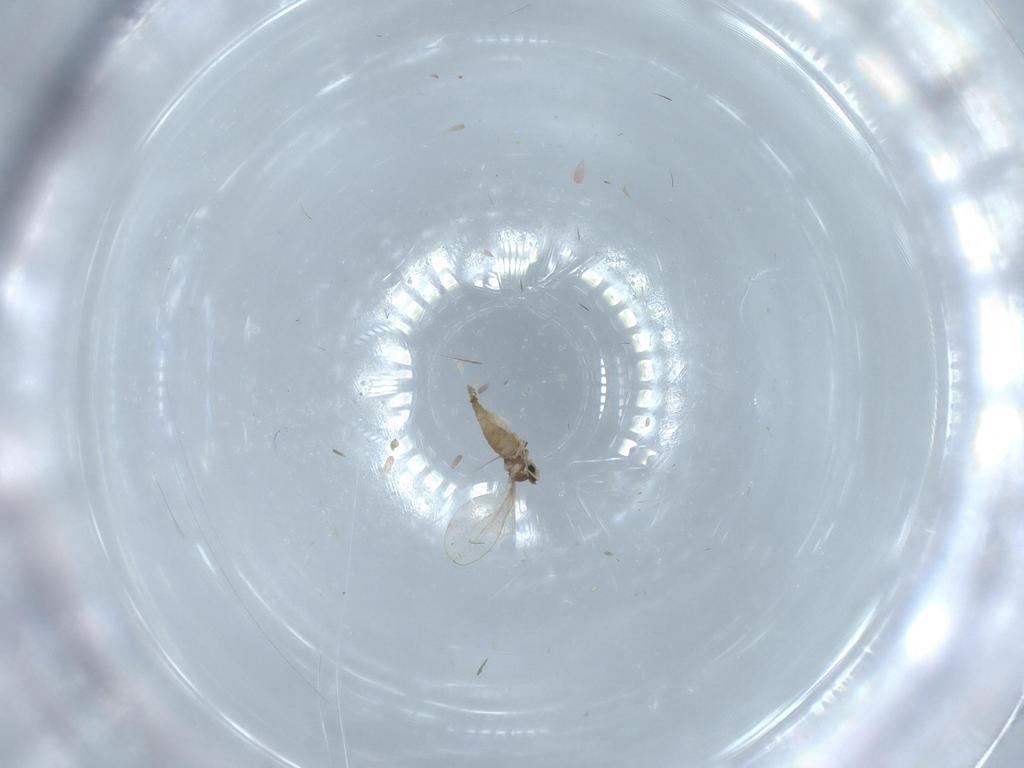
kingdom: Animalia
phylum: Arthropoda
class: Insecta
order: Diptera
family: Cecidomyiidae
